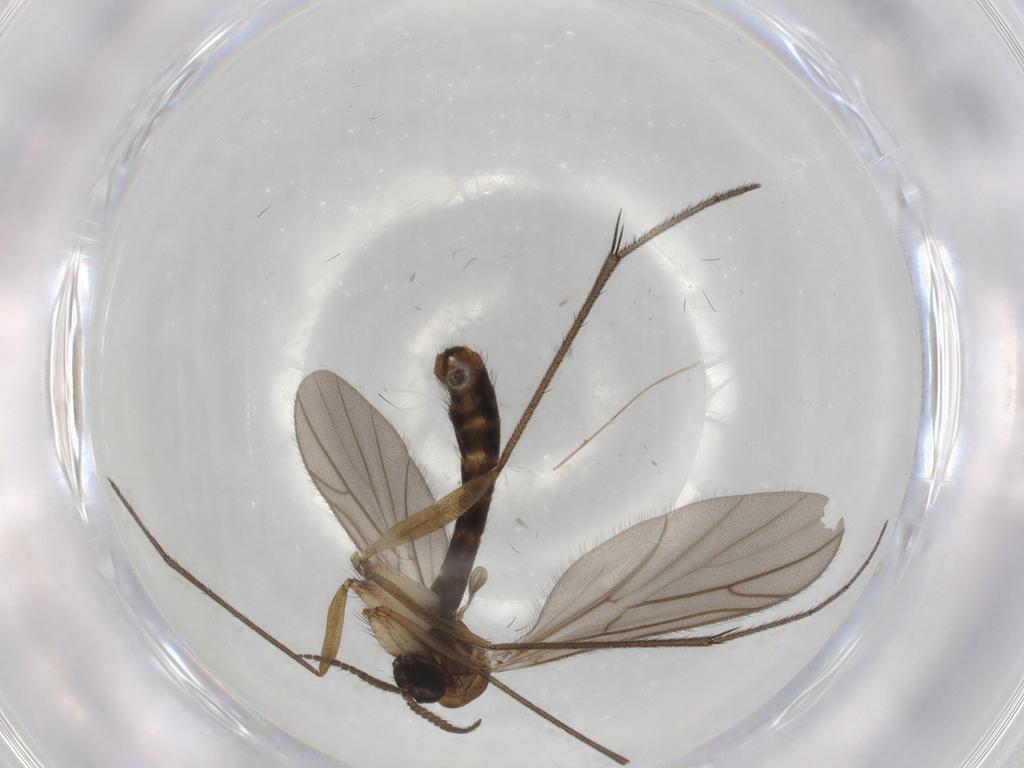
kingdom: Animalia
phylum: Arthropoda
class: Insecta
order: Diptera
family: Ditomyiidae
